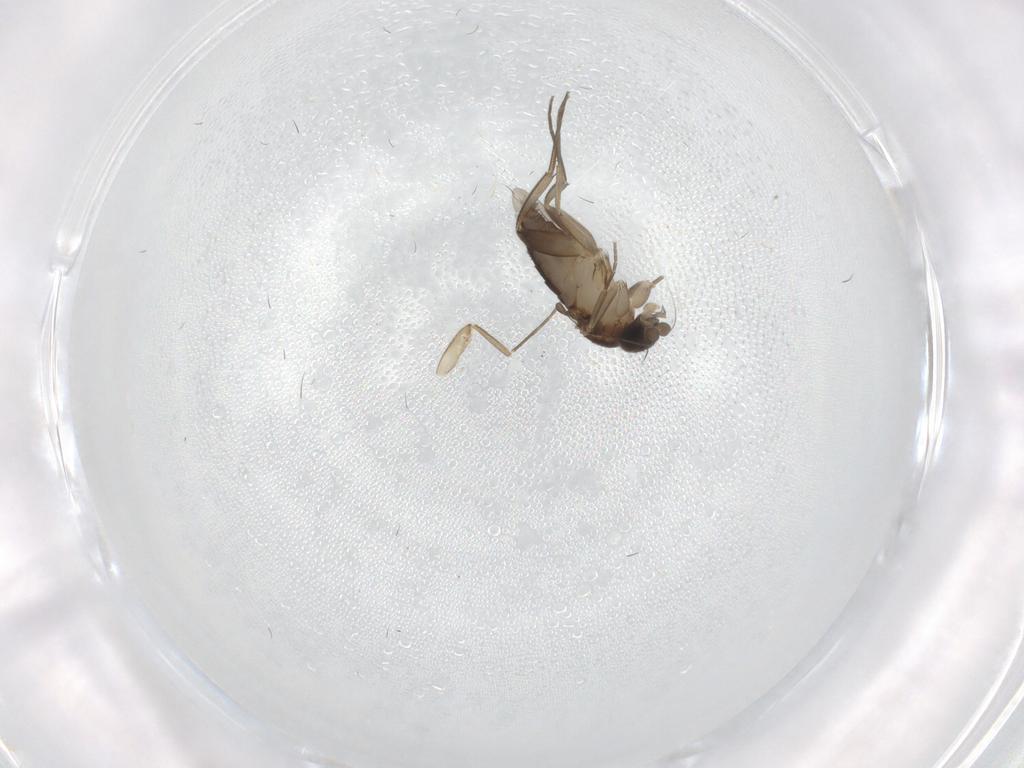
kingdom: Animalia
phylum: Arthropoda
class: Insecta
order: Diptera
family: Phoridae
